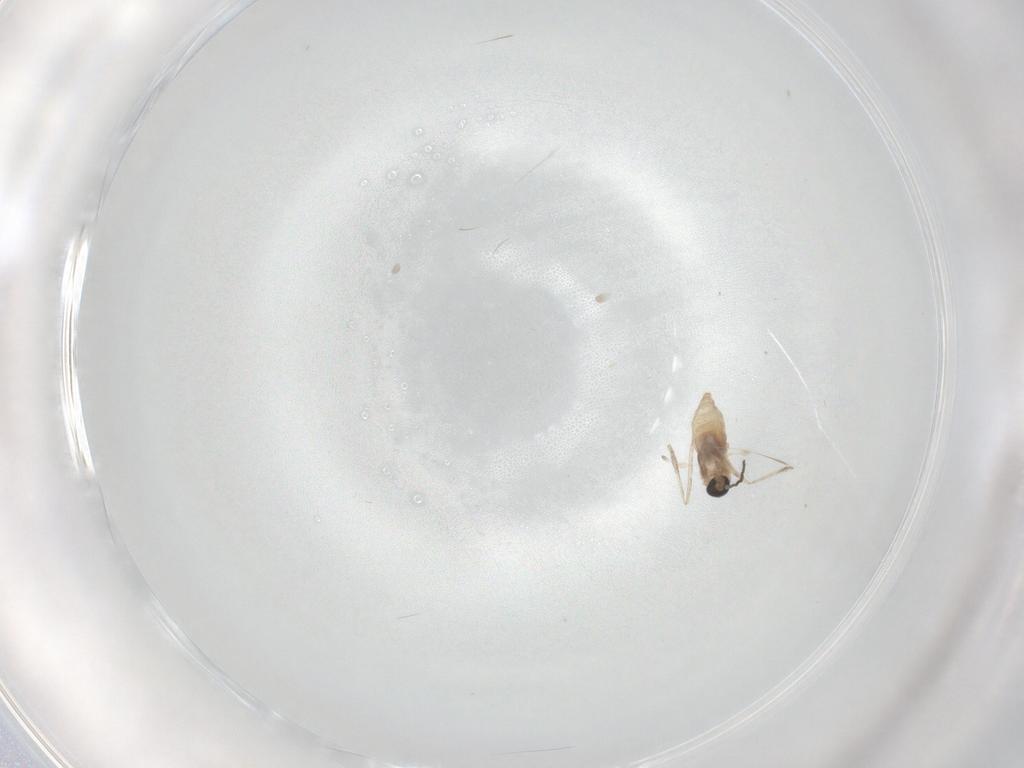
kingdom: Animalia
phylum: Arthropoda
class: Insecta
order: Diptera
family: Cecidomyiidae
